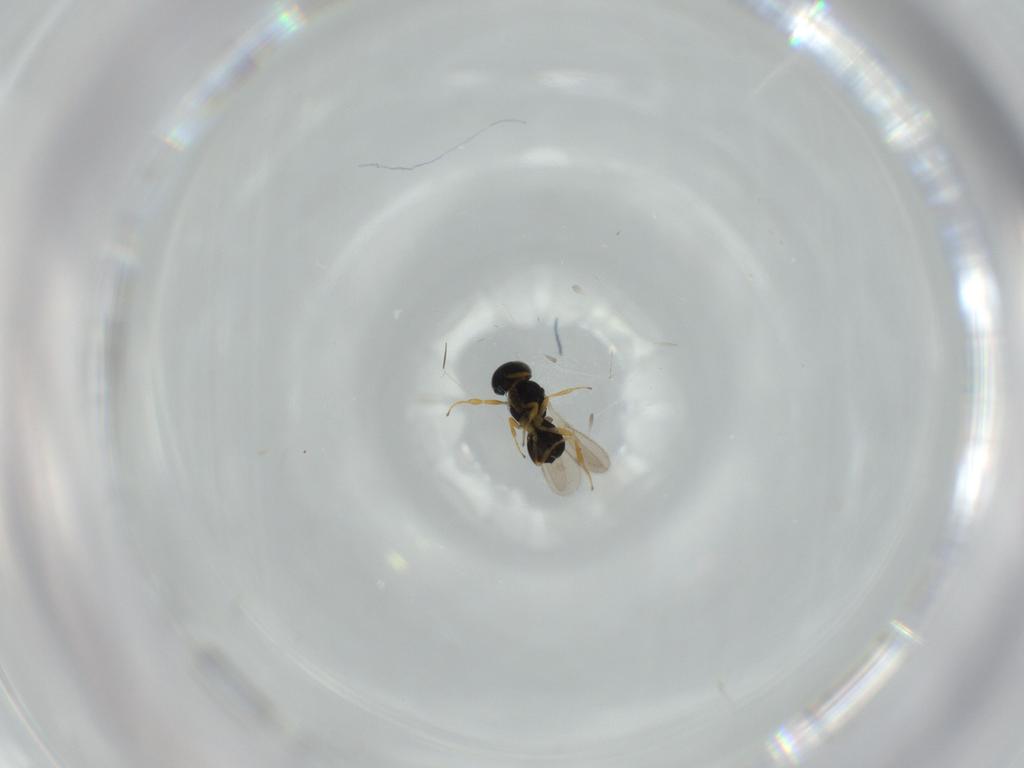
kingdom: Animalia
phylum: Arthropoda
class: Insecta
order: Hymenoptera
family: Scelionidae
